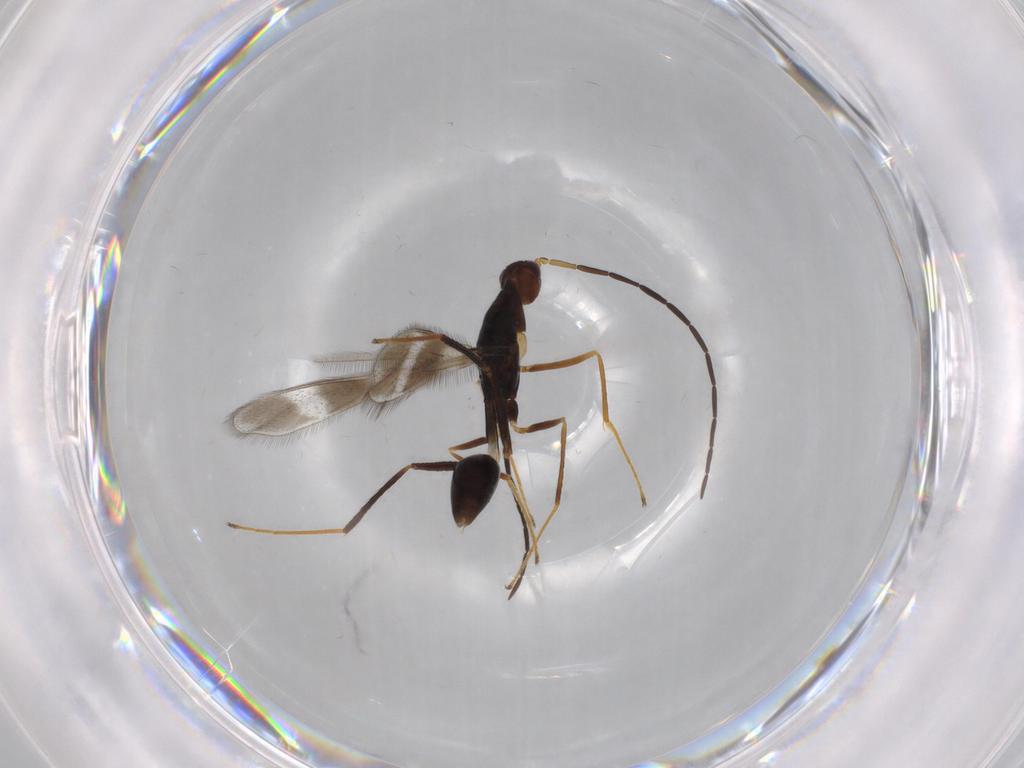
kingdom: Animalia
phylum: Arthropoda
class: Insecta
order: Hymenoptera
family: Mymaridae
